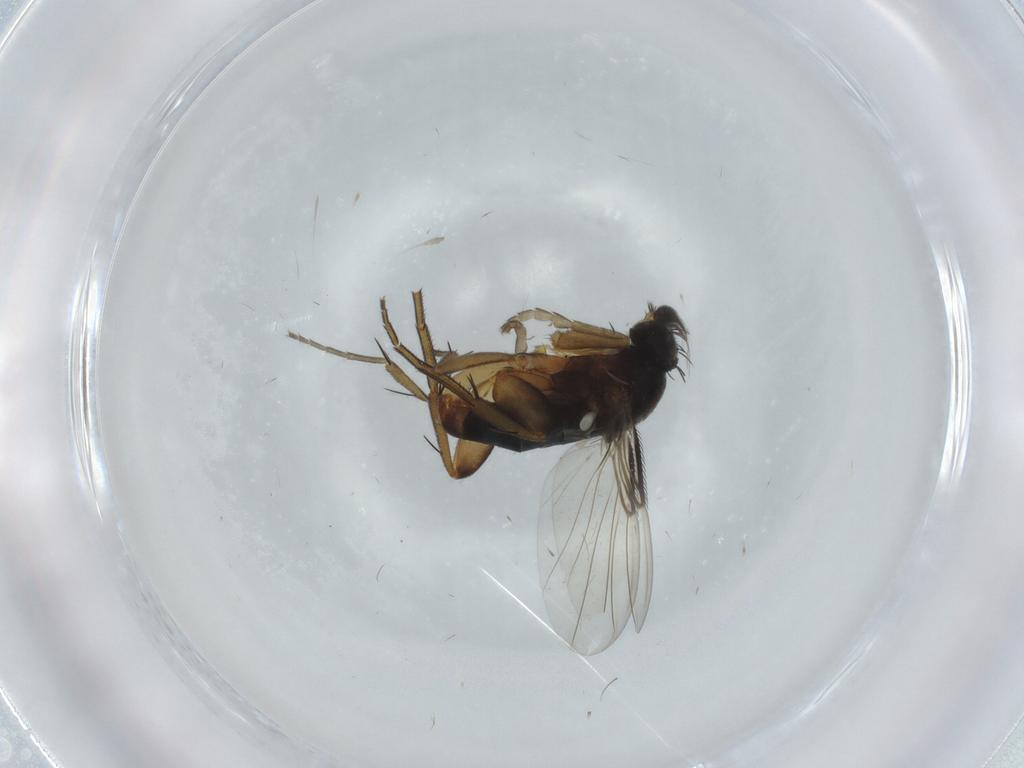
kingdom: Animalia
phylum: Arthropoda
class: Insecta
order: Diptera
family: Phoridae
